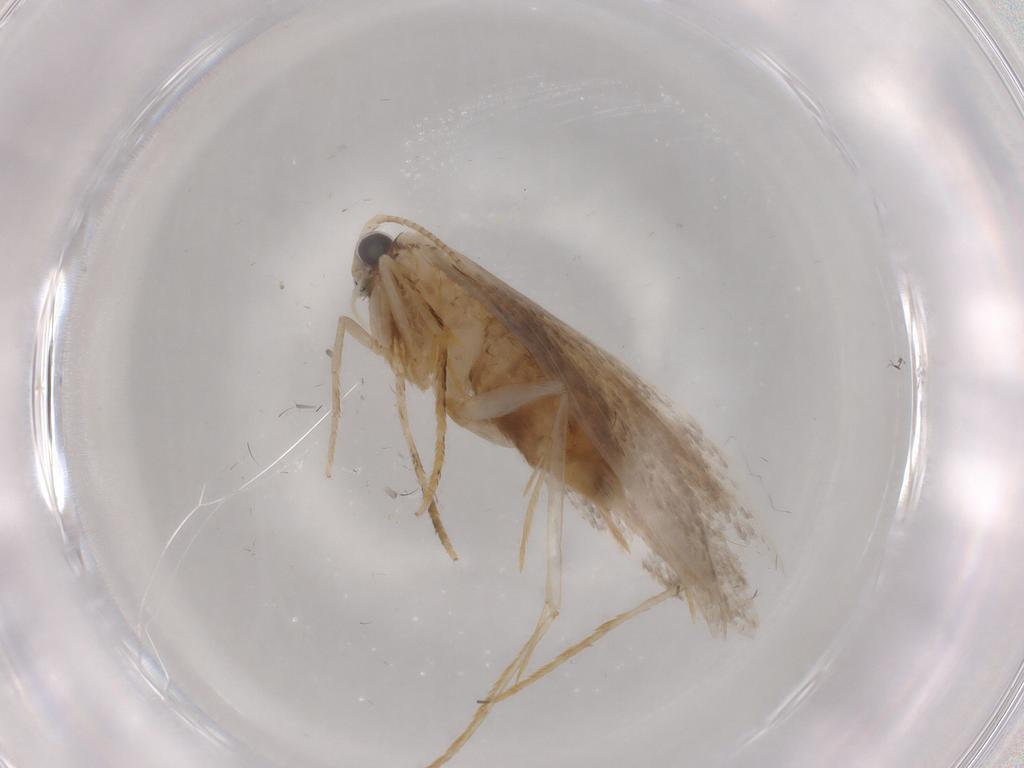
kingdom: Animalia
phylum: Arthropoda
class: Insecta
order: Lepidoptera
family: Tineidae
